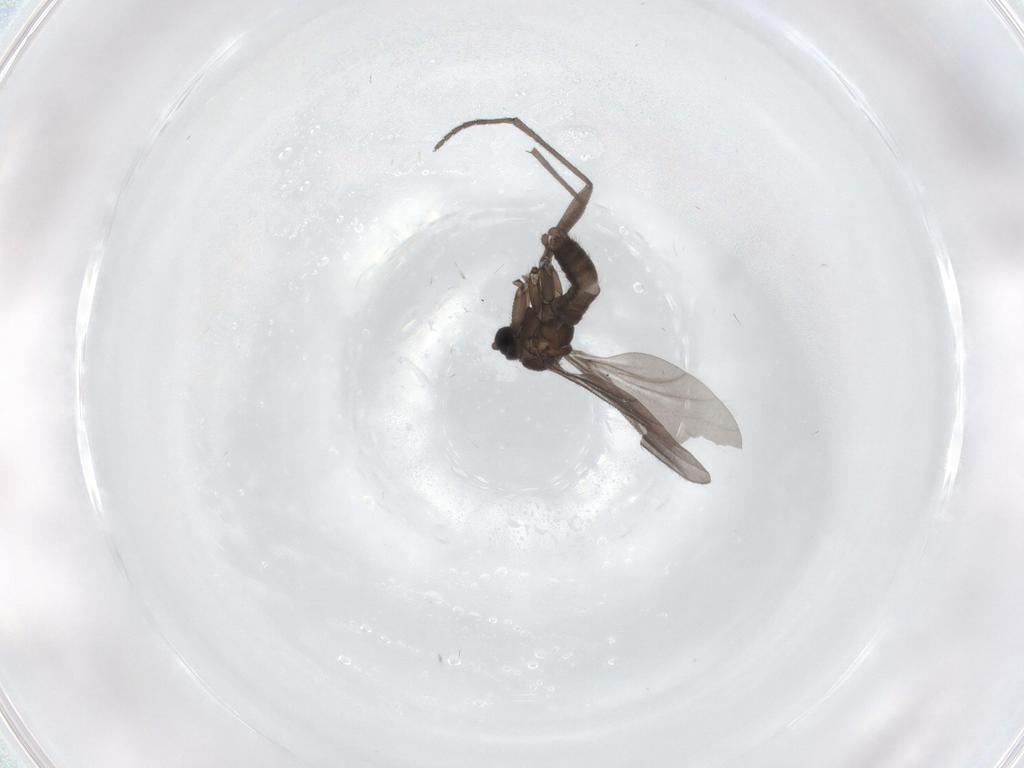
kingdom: Animalia
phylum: Arthropoda
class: Insecta
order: Diptera
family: Sciaridae
